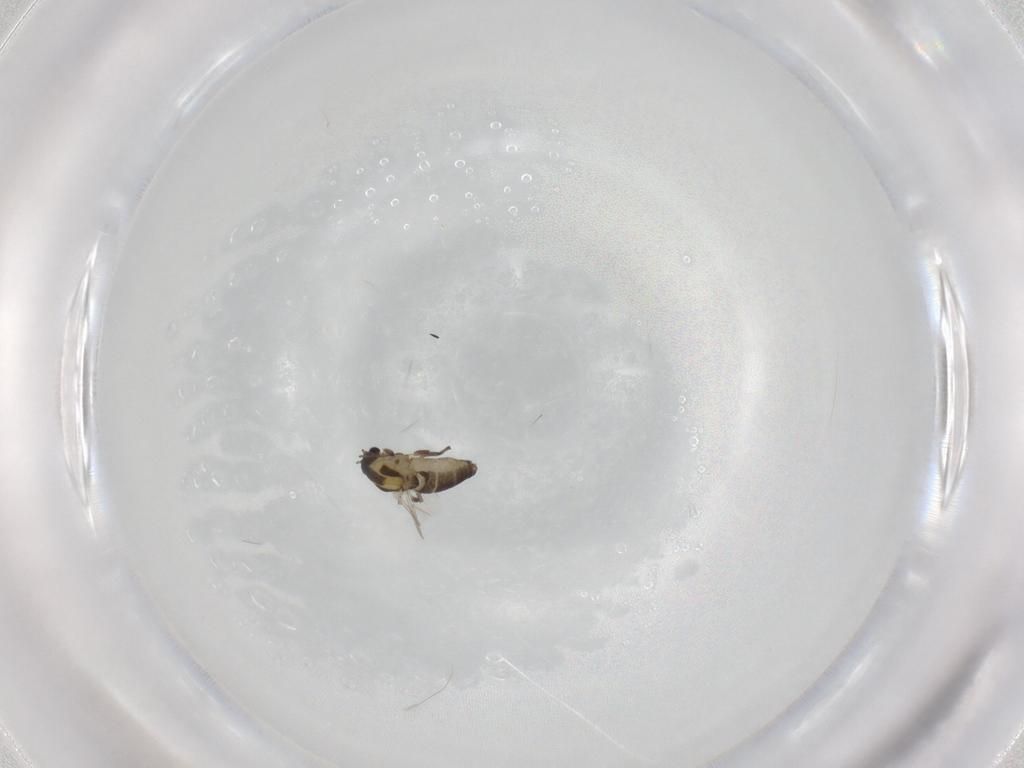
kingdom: Animalia
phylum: Arthropoda
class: Insecta
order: Diptera
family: Chironomidae
